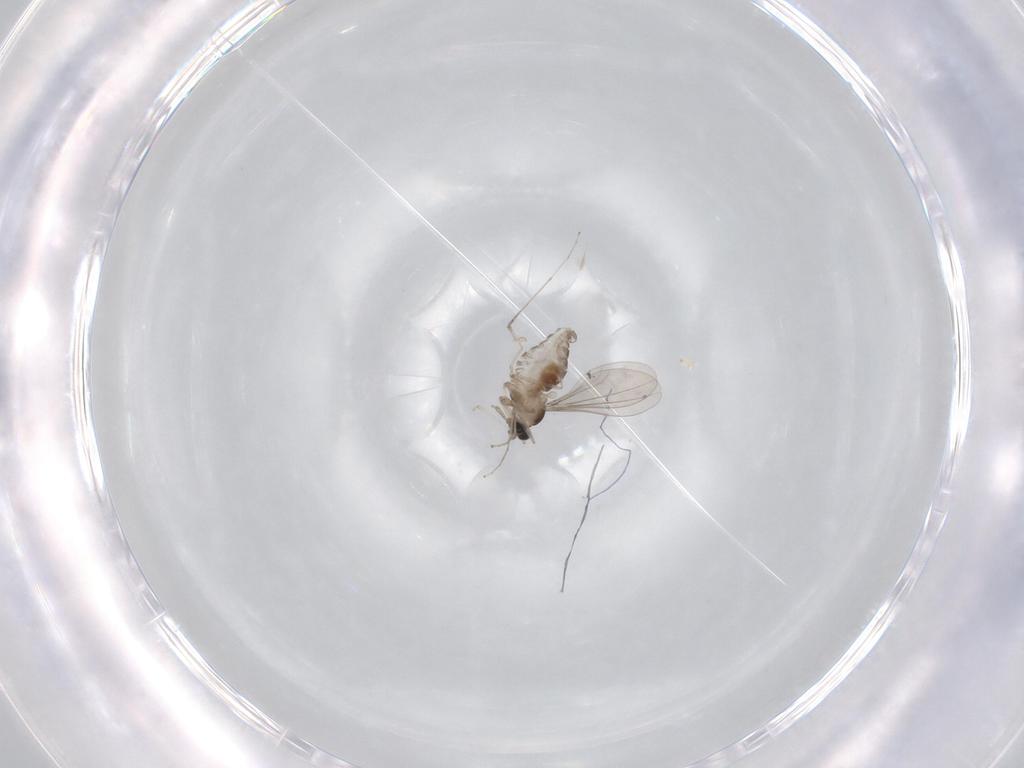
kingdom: Animalia
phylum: Arthropoda
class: Insecta
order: Diptera
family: Cecidomyiidae
